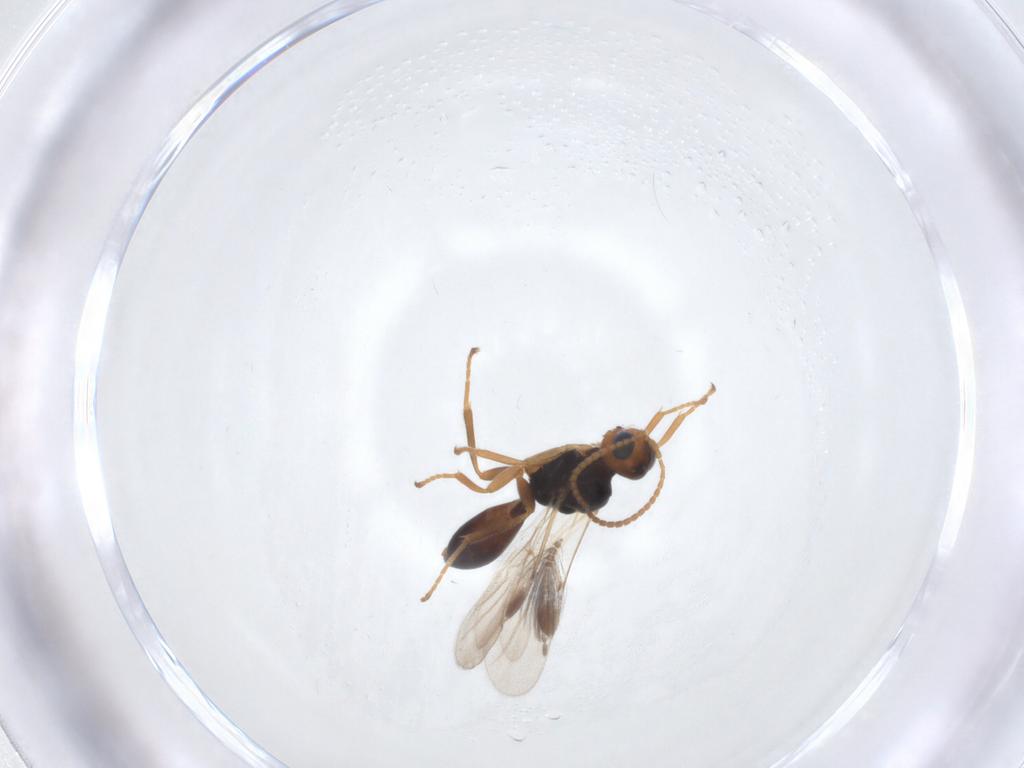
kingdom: Animalia
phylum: Arthropoda
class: Insecta
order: Hymenoptera
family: Braconidae
